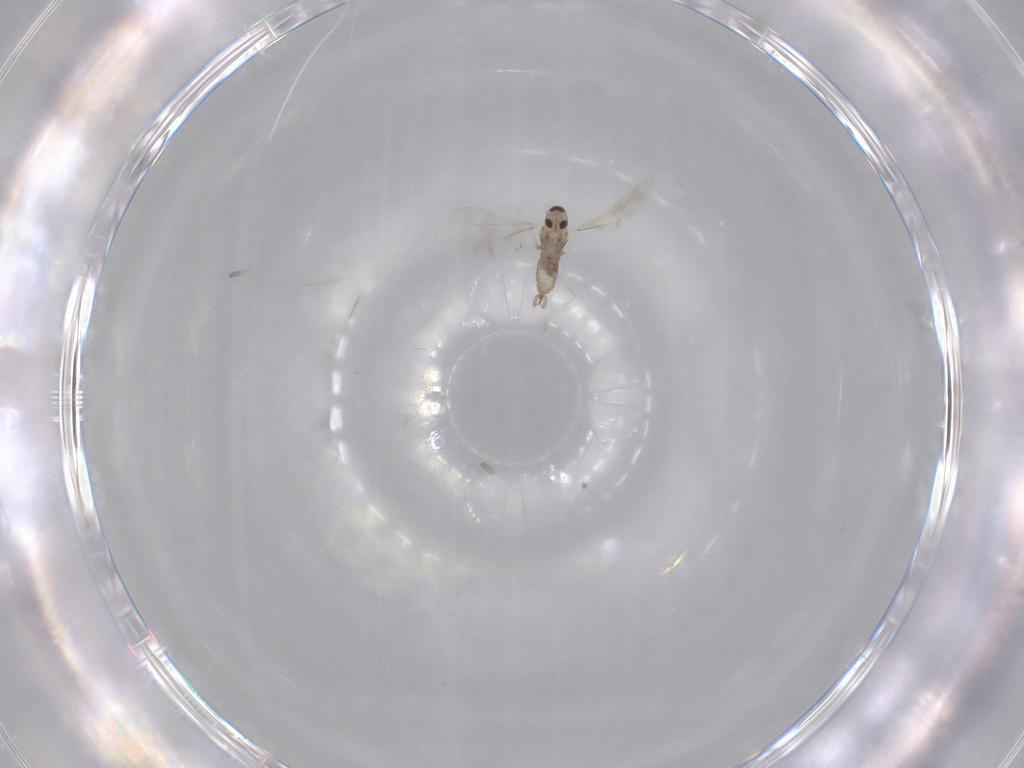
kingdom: Animalia
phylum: Arthropoda
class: Insecta
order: Diptera
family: Cecidomyiidae
